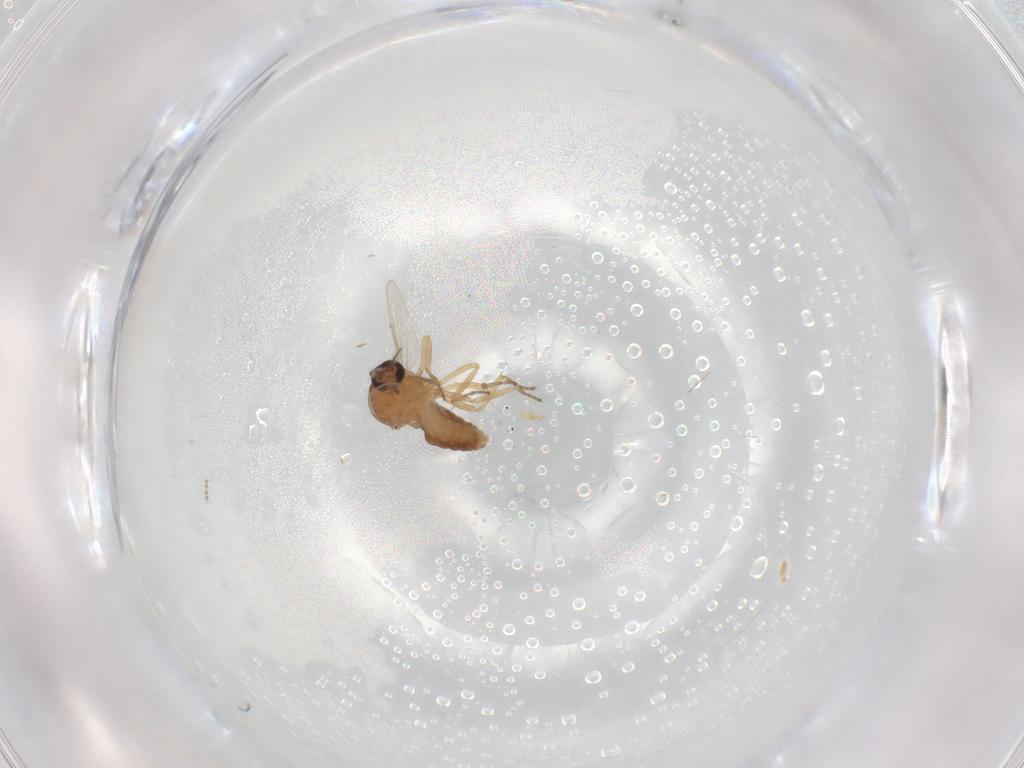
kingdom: Animalia
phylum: Arthropoda
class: Insecta
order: Diptera
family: Ceratopogonidae
